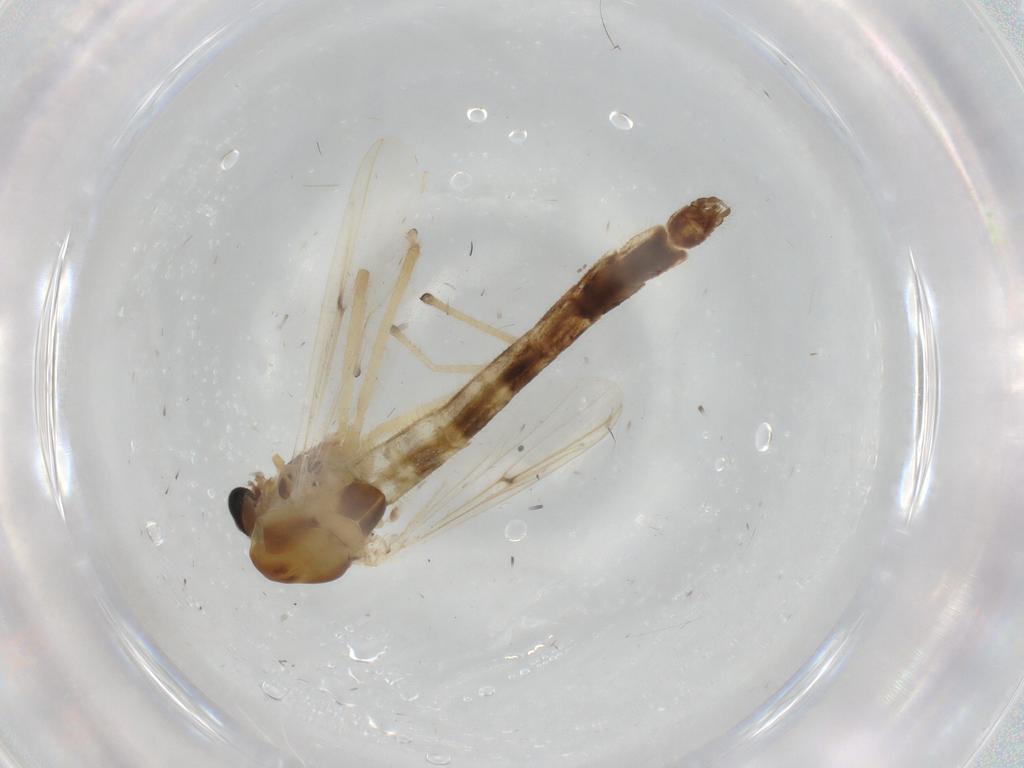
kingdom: Animalia
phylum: Arthropoda
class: Insecta
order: Diptera
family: Chironomidae
